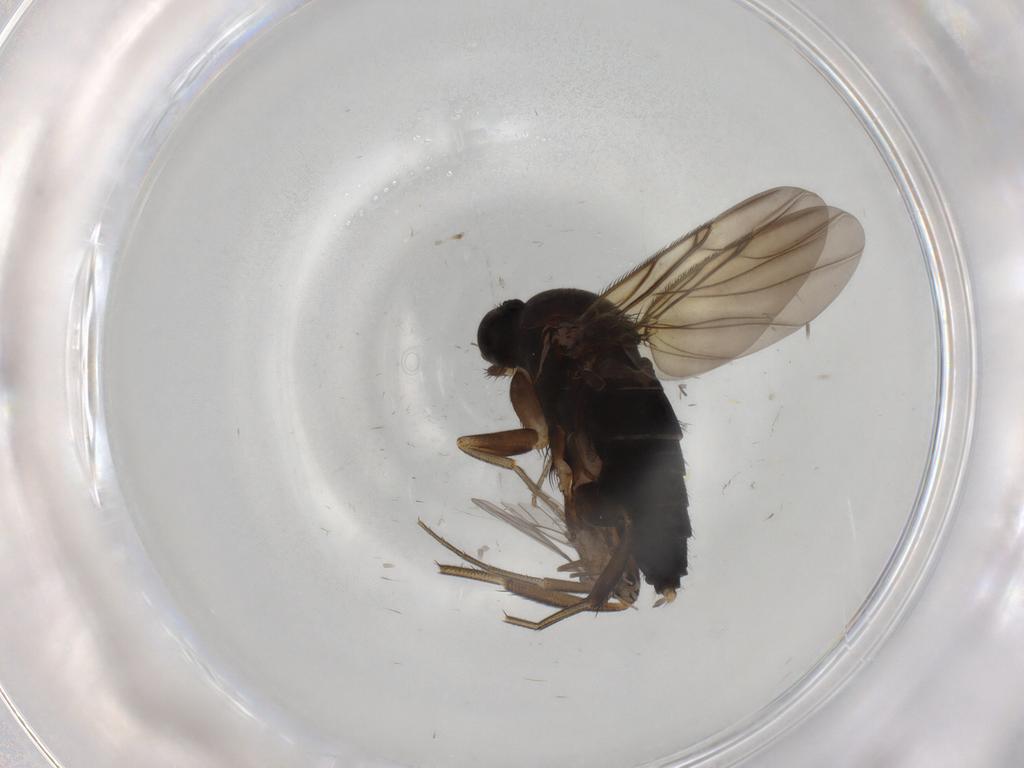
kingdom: Animalia
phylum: Arthropoda
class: Insecta
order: Diptera
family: Phoridae
